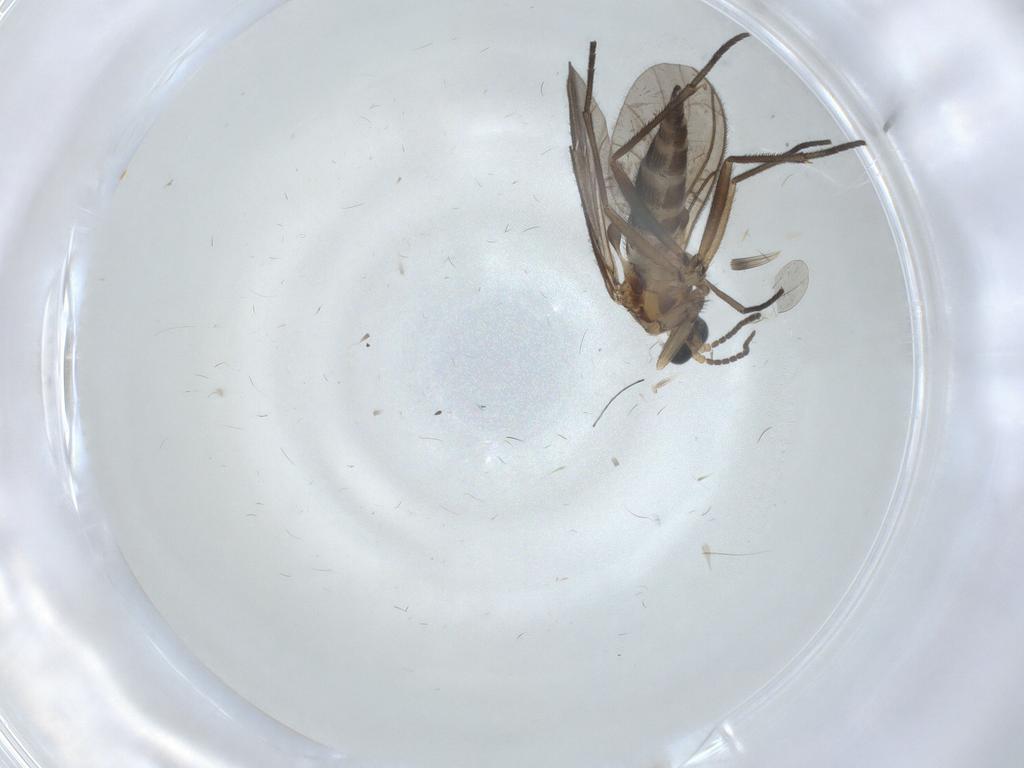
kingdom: Animalia
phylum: Arthropoda
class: Insecta
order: Diptera
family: Sciaridae
